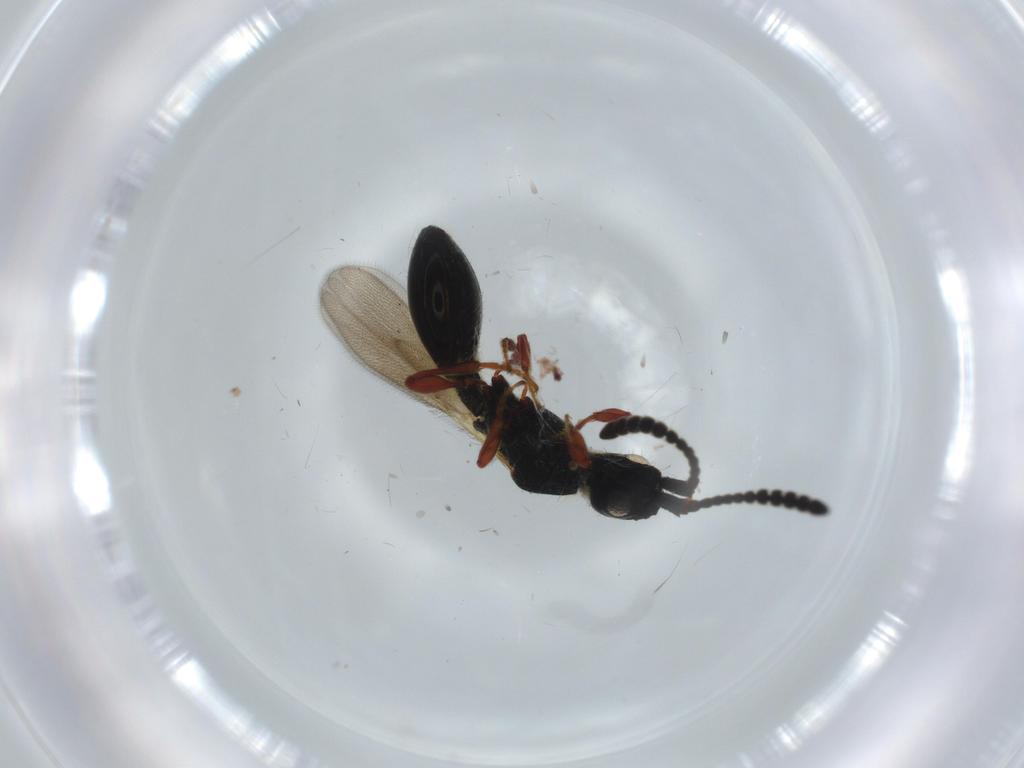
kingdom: Animalia
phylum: Arthropoda
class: Insecta
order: Hymenoptera
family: Diapriidae
